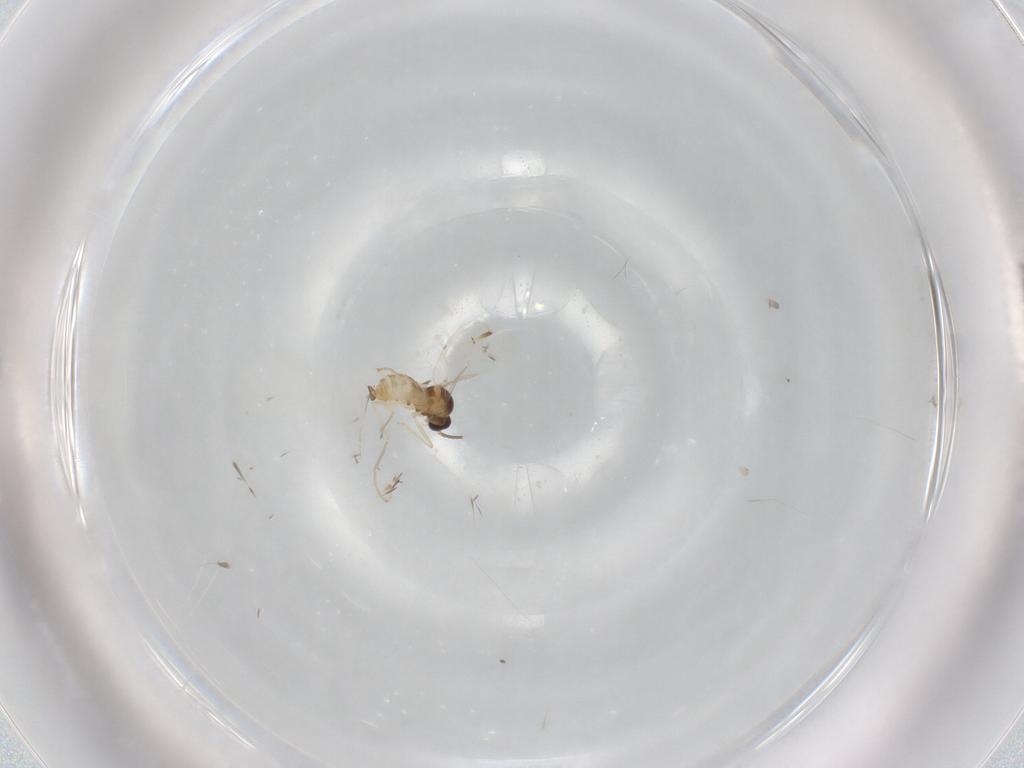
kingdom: Animalia
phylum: Arthropoda
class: Insecta
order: Diptera
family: Cecidomyiidae
